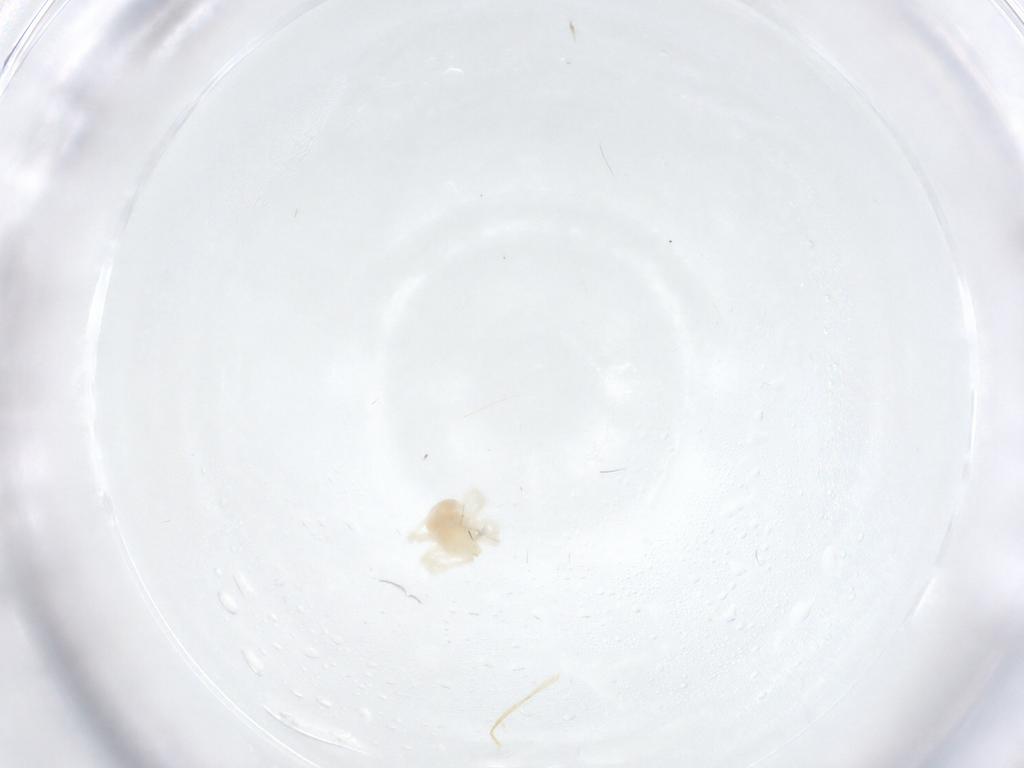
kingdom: Animalia
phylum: Arthropoda
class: Arachnida
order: Trombidiformes
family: Anystidae
